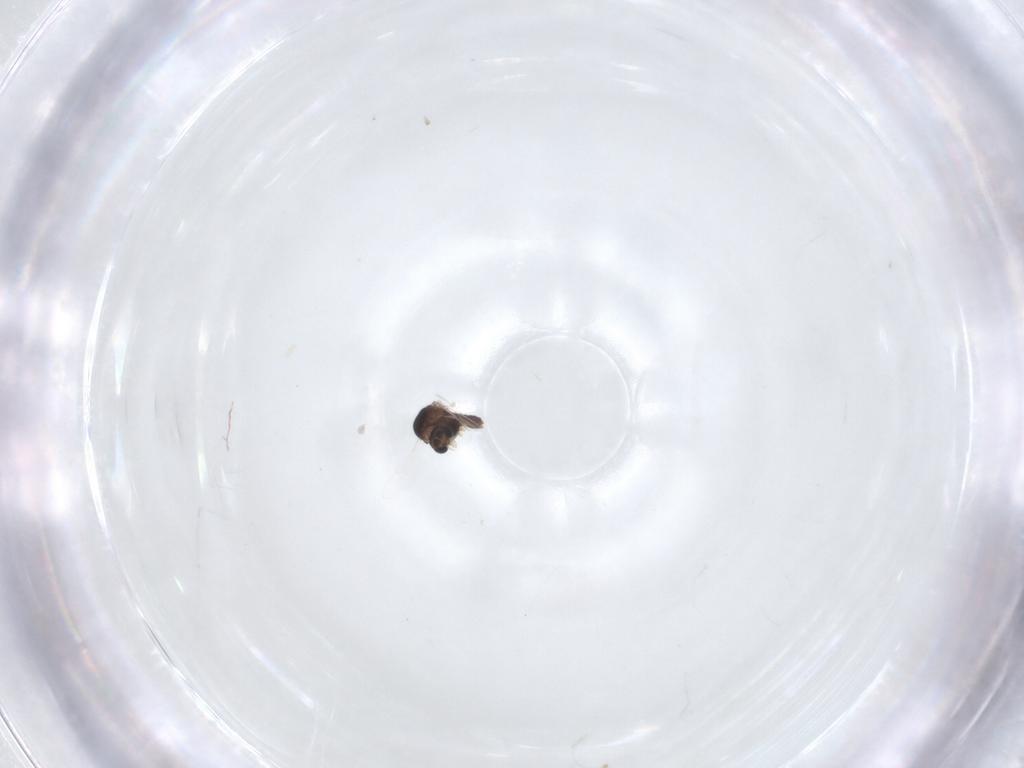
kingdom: Animalia
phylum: Arthropoda
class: Insecta
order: Diptera
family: Chironomidae
